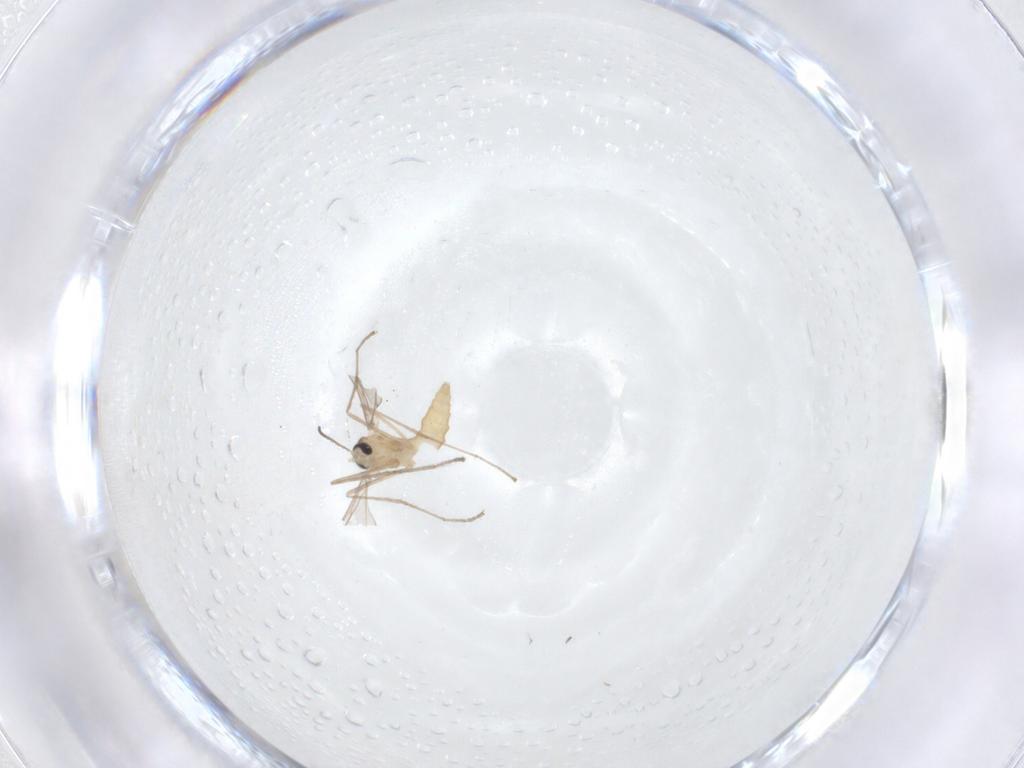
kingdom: Animalia
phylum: Arthropoda
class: Insecta
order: Diptera
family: Cecidomyiidae
